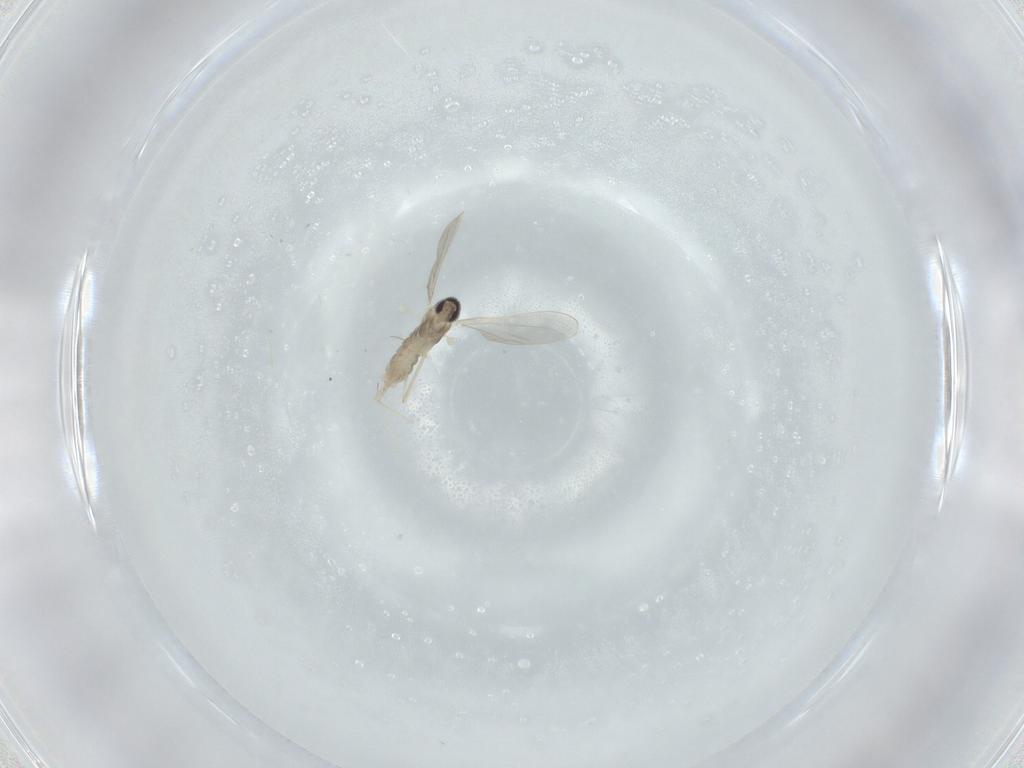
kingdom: Animalia
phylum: Arthropoda
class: Insecta
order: Diptera
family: Cecidomyiidae
